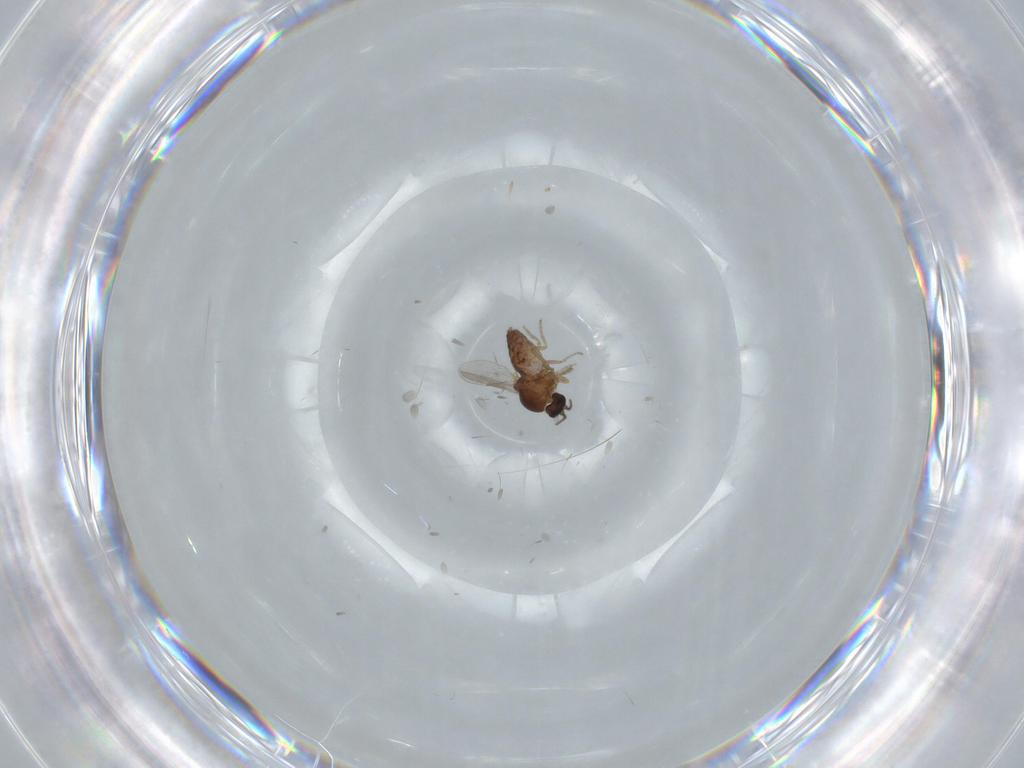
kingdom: Animalia
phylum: Arthropoda
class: Insecta
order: Diptera
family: Ceratopogonidae
